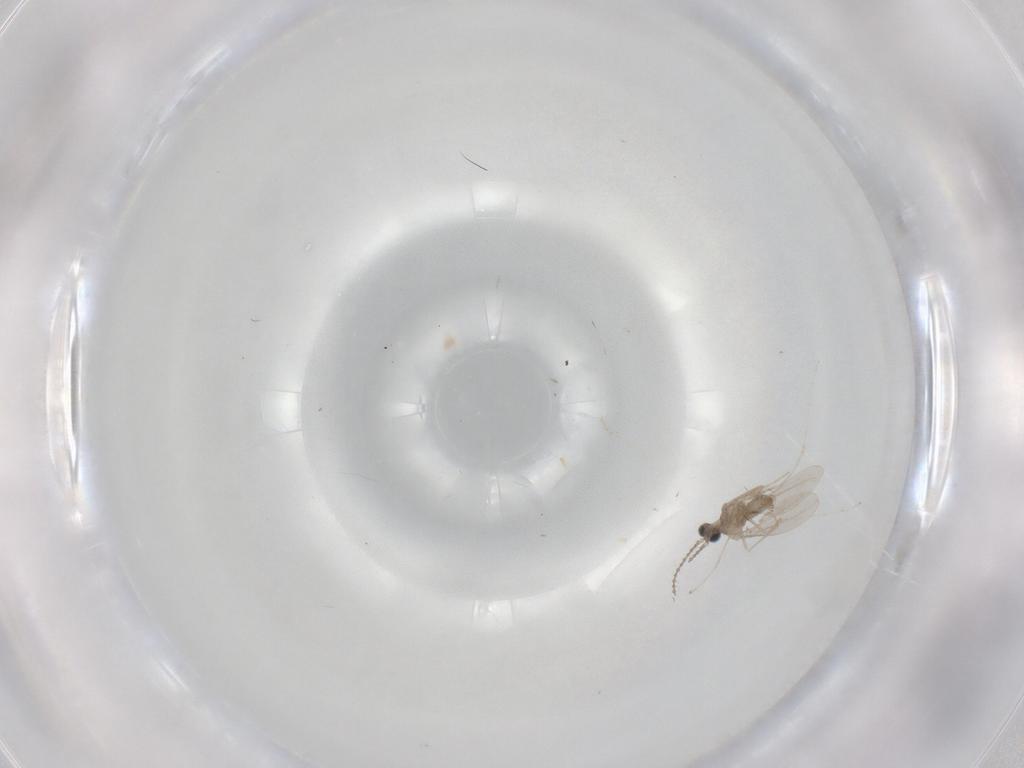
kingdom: Animalia
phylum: Arthropoda
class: Insecta
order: Diptera
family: Cecidomyiidae
